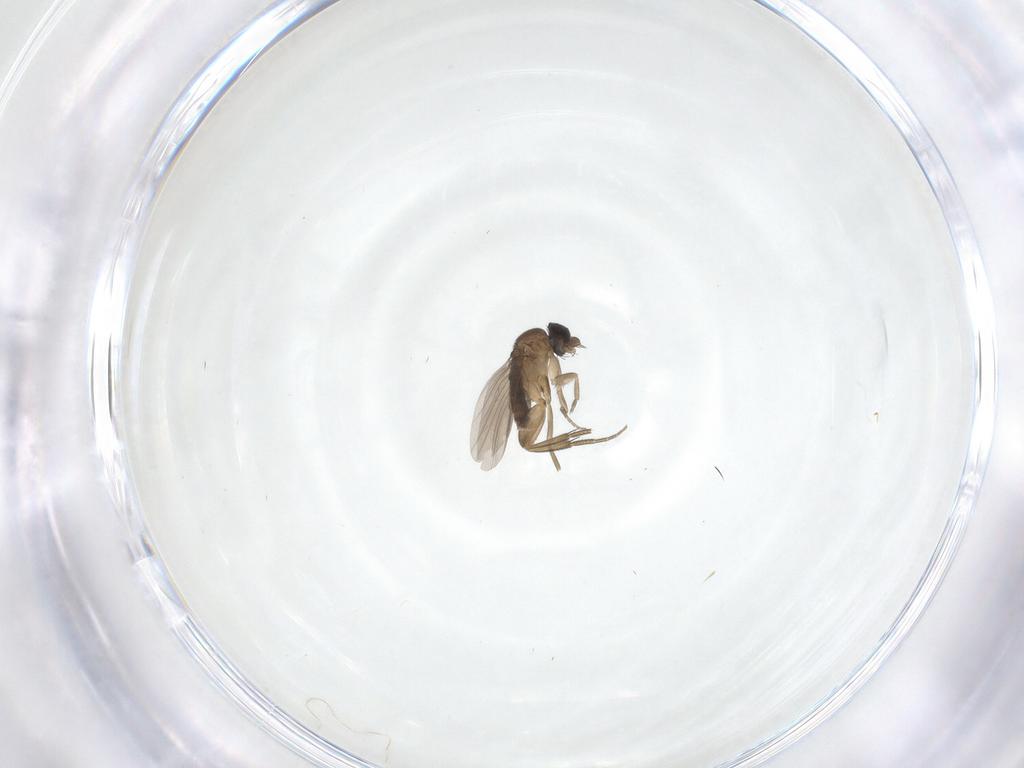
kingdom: Animalia
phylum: Arthropoda
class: Insecta
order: Diptera
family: Phoridae
